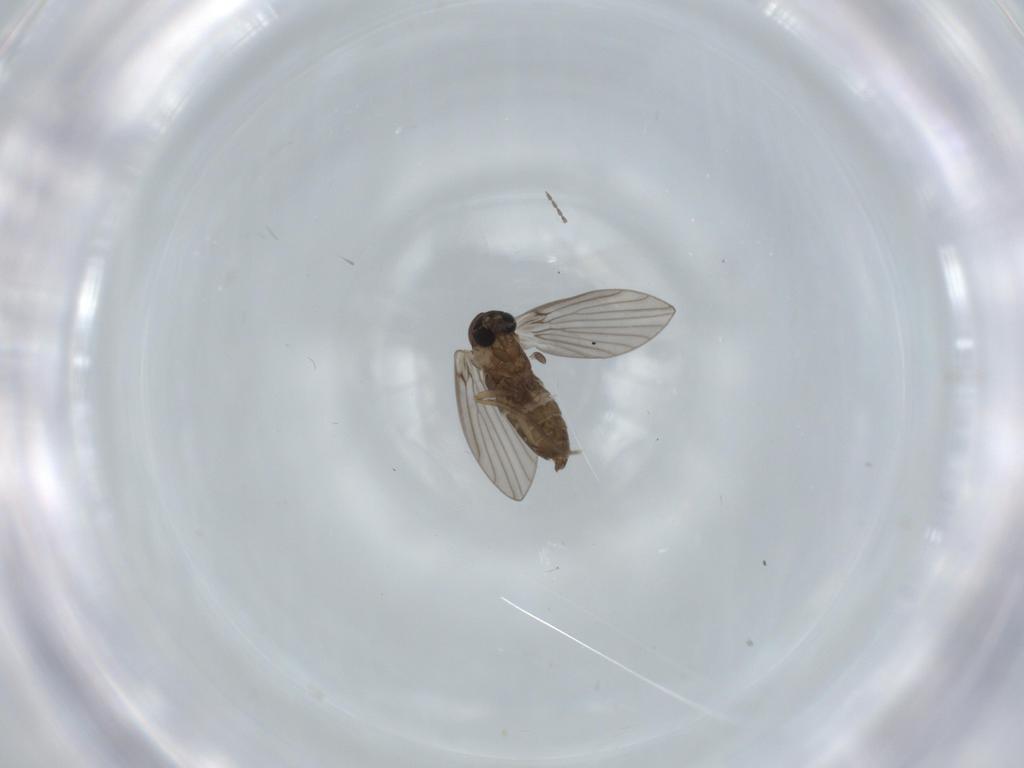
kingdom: Animalia
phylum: Arthropoda
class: Insecta
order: Diptera
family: Psychodidae
